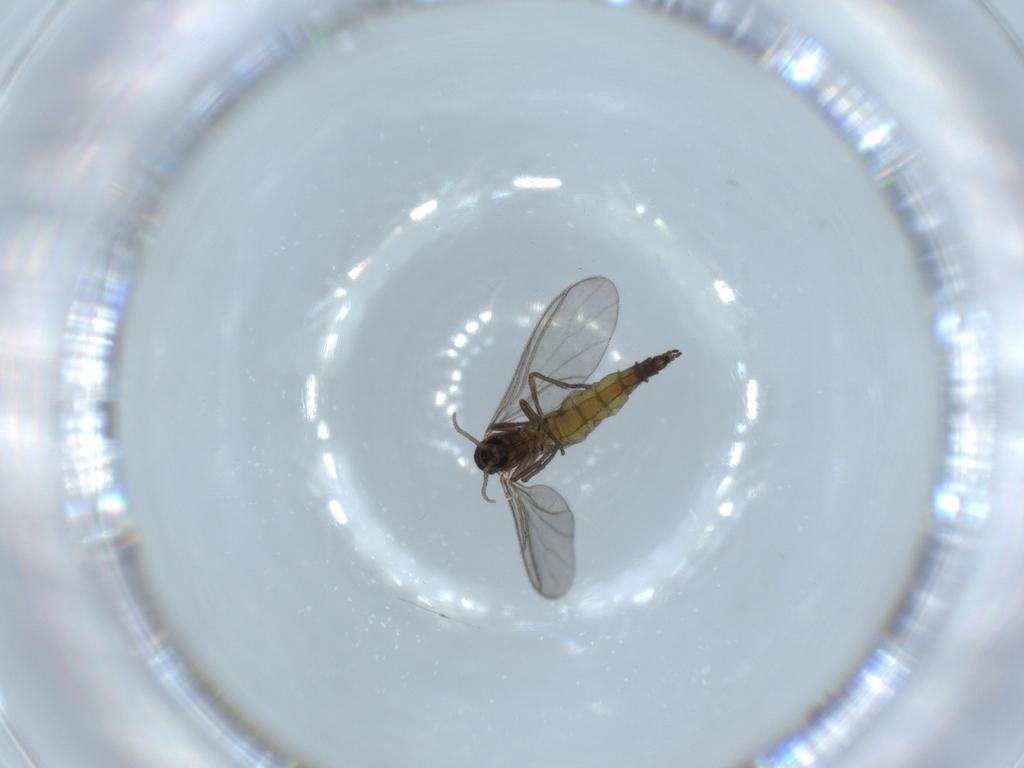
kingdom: Animalia
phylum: Arthropoda
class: Insecta
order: Diptera
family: Sciaridae
